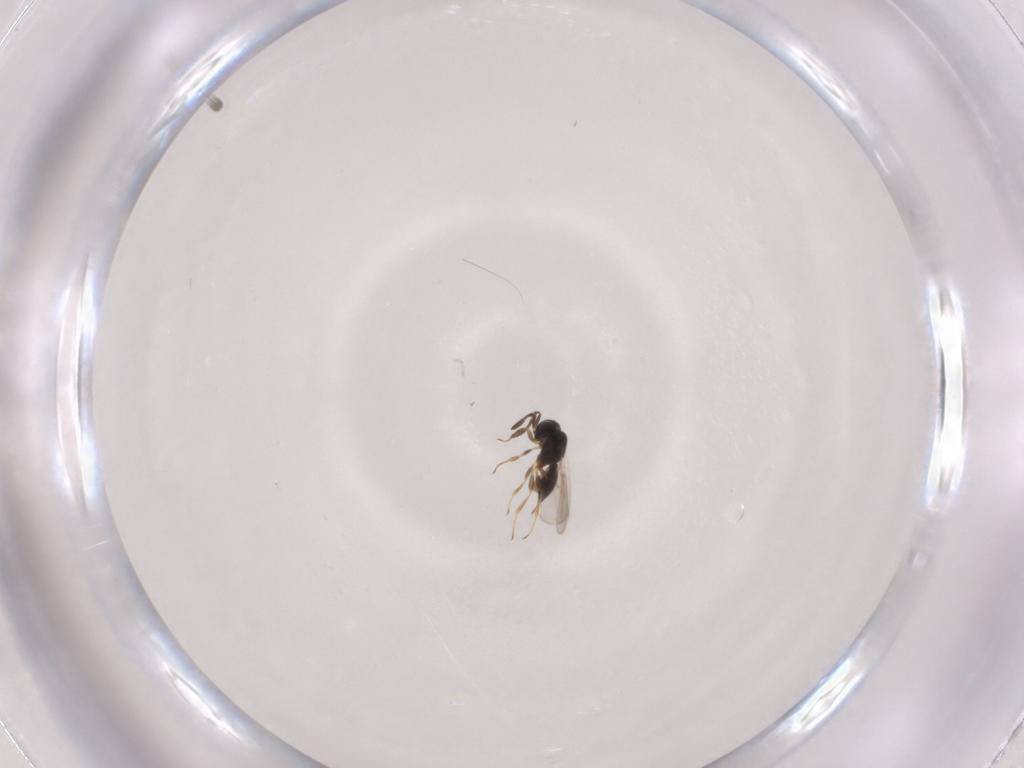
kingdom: Animalia
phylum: Arthropoda
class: Insecta
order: Hymenoptera
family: Scelionidae
